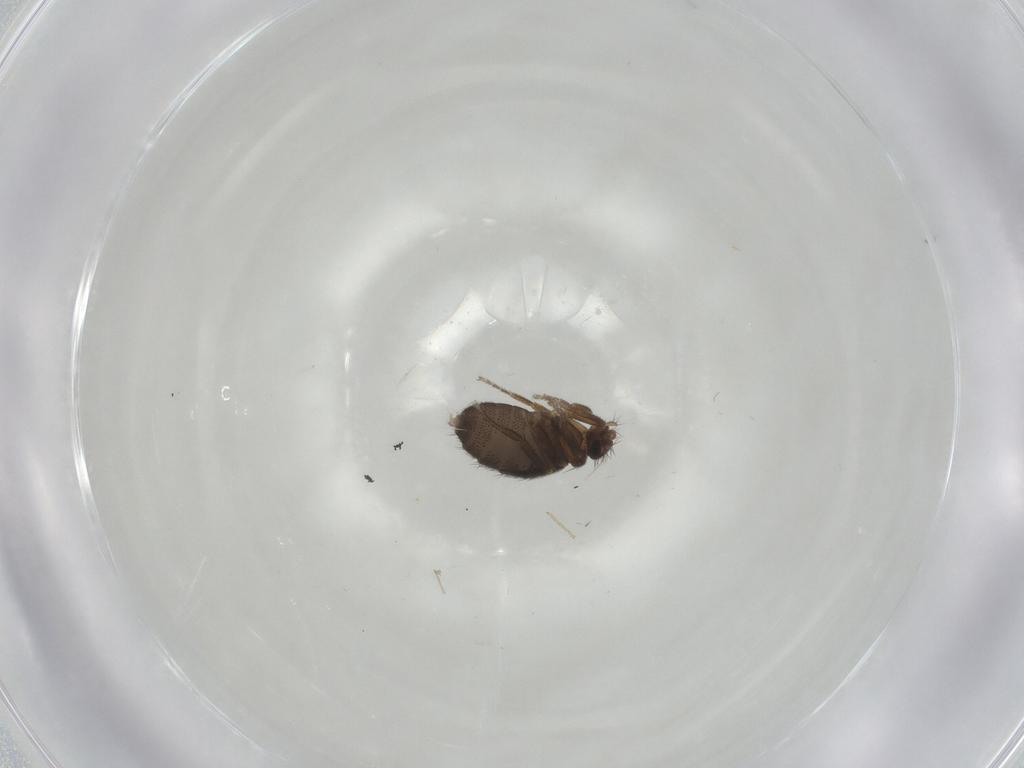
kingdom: Animalia
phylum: Arthropoda
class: Insecta
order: Diptera
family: Phoridae
